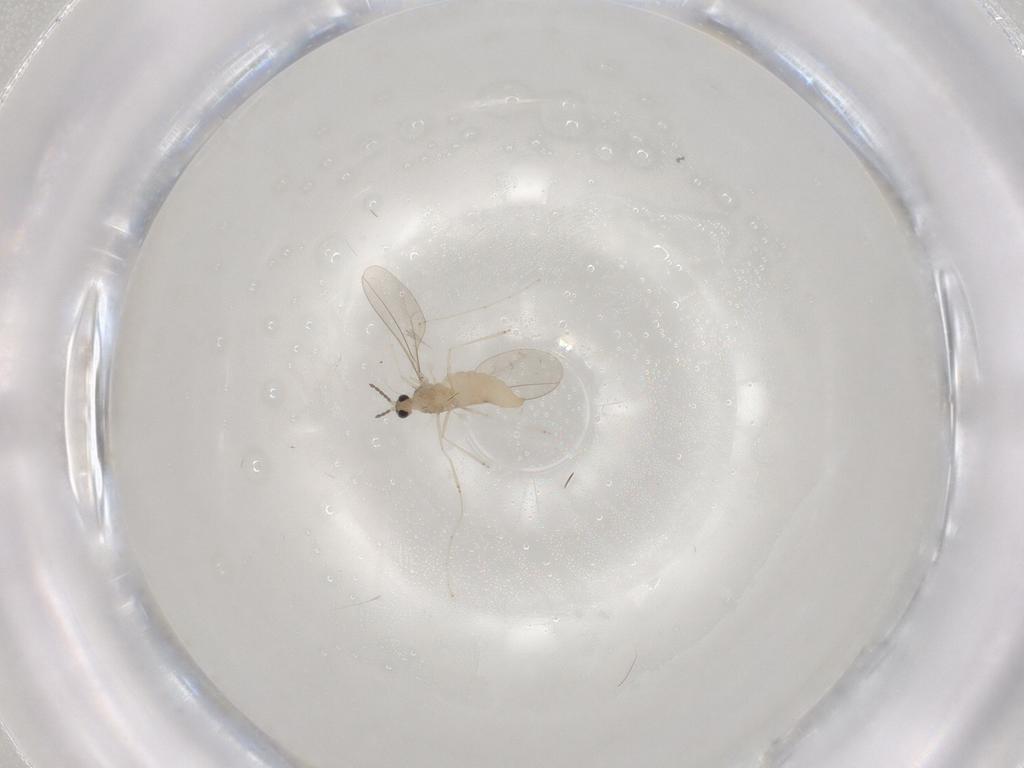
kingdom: Animalia
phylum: Arthropoda
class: Insecta
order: Diptera
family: Cecidomyiidae
